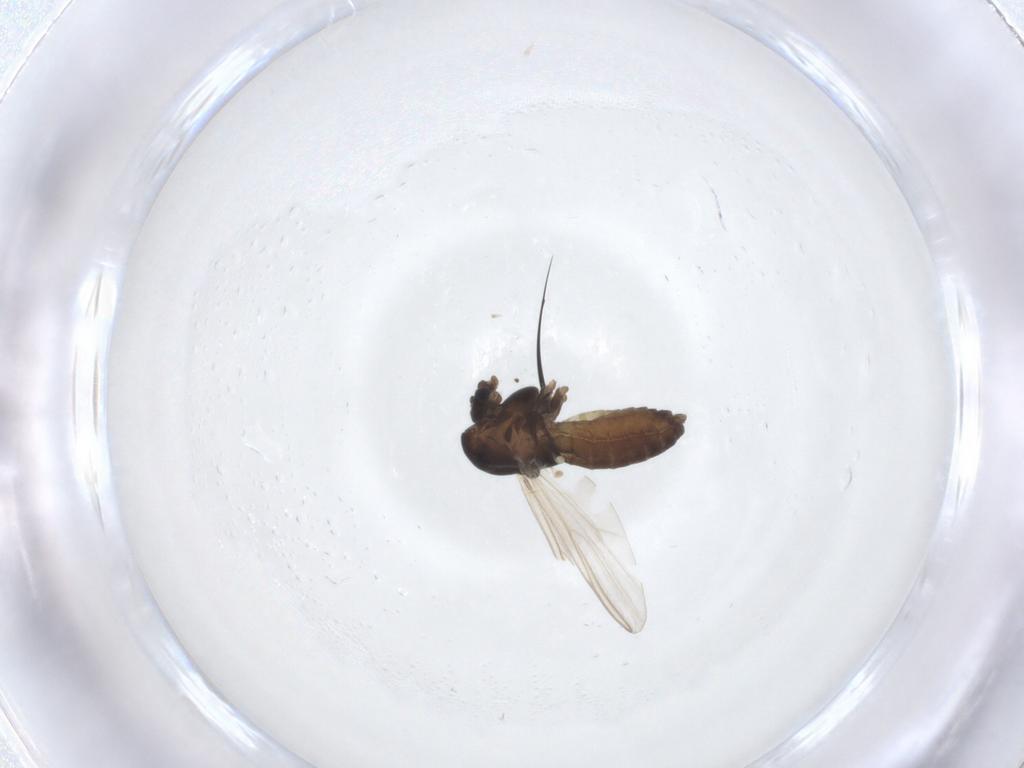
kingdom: Animalia
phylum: Arthropoda
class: Insecta
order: Diptera
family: Chironomidae
